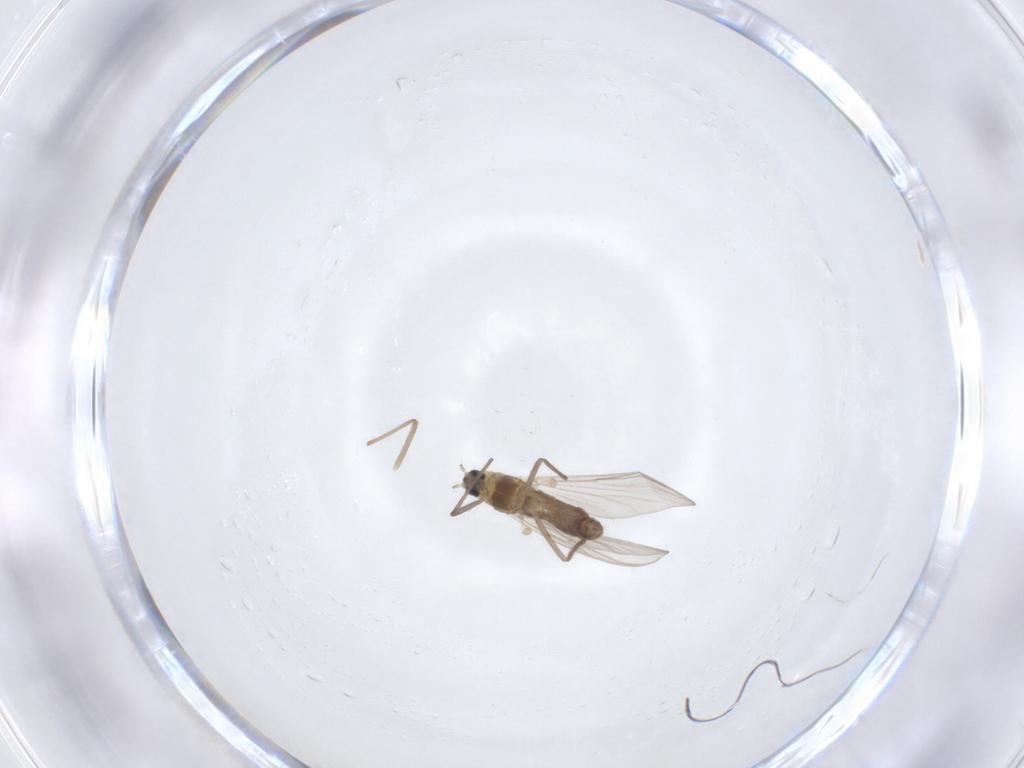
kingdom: Animalia
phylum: Arthropoda
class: Insecta
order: Diptera
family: Chironomidae
